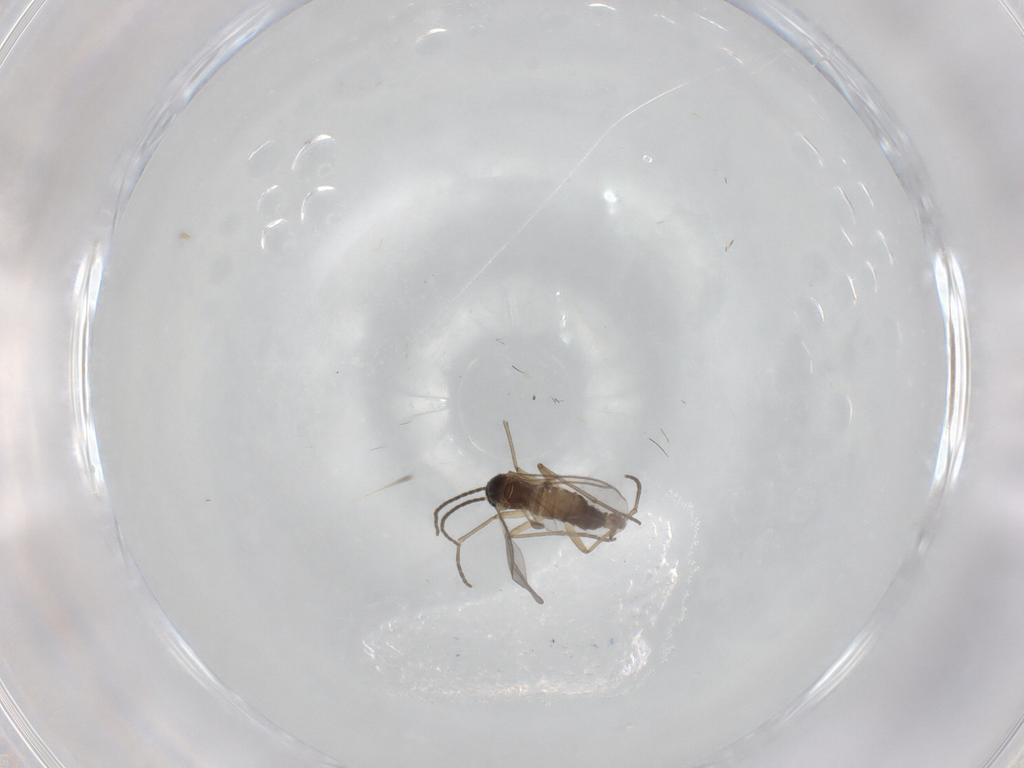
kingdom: Animalia
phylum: Arthropoda
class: Insecta
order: Diptera
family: Sciaridae
